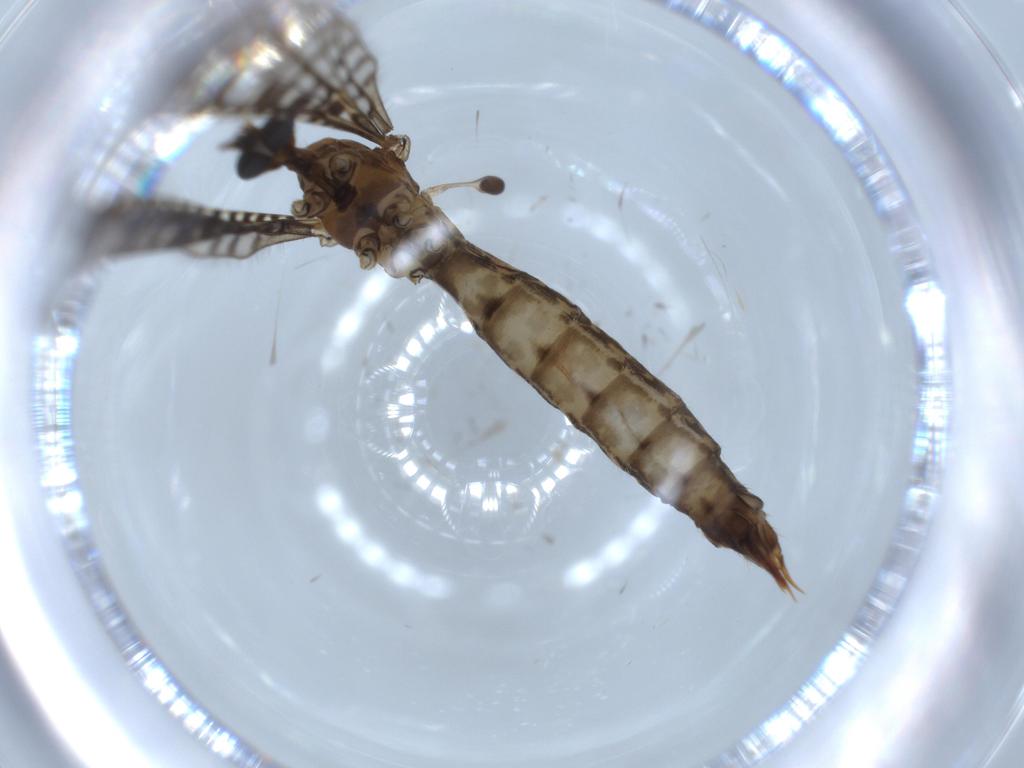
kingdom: Animalia
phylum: Arthropoda
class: Insecta
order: Diptera
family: Limoniidae
